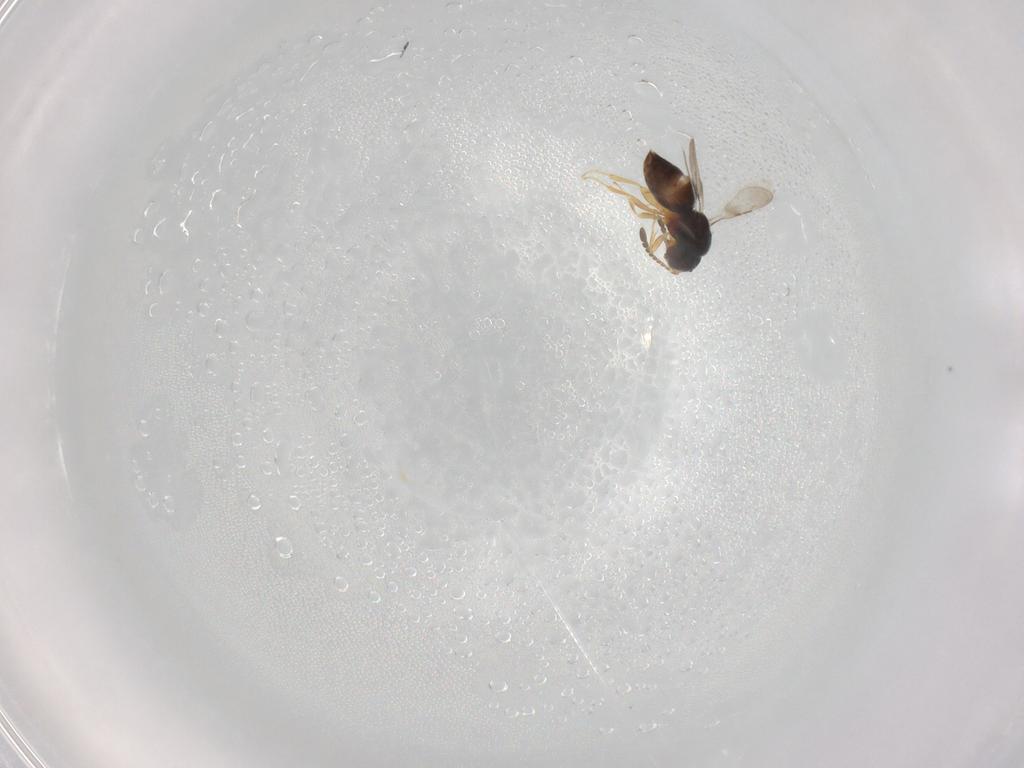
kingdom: Animalia
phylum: Arthropoda
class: Insecta
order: Hymenoptera
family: Ceraphronidae
